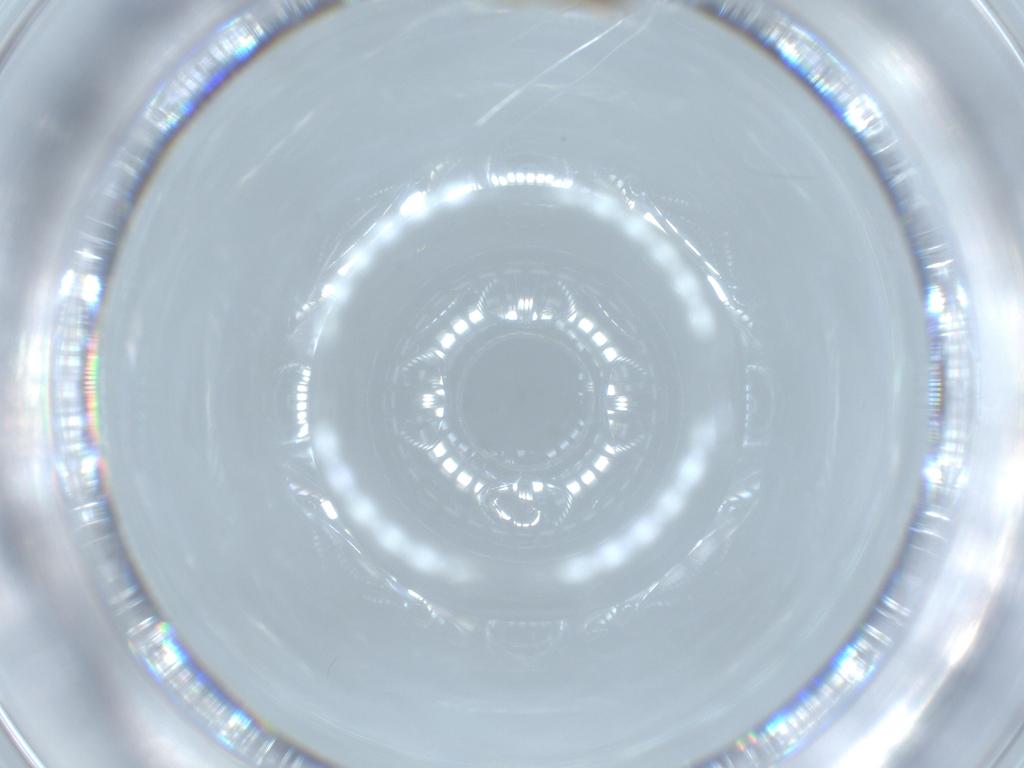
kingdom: Animalia
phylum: Arthropoda
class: Insecta
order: Diptera
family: Chironomidae
